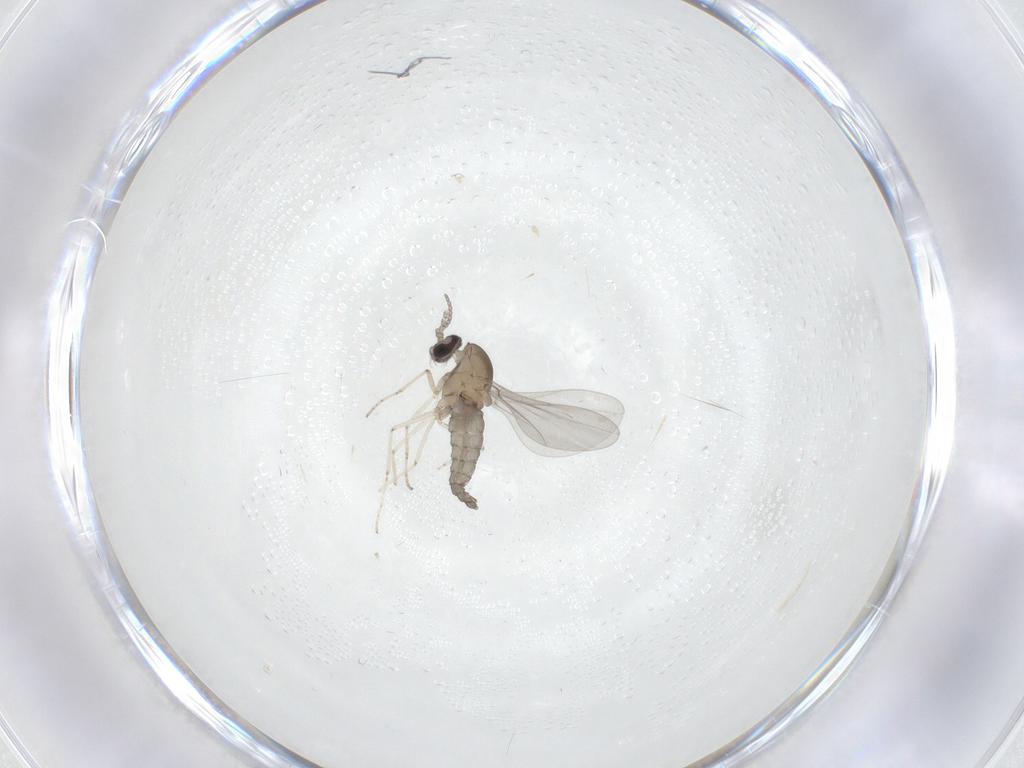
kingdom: Animalia
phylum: Arthropoda
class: Insecta
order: Diptera
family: Cecidomyiidae
